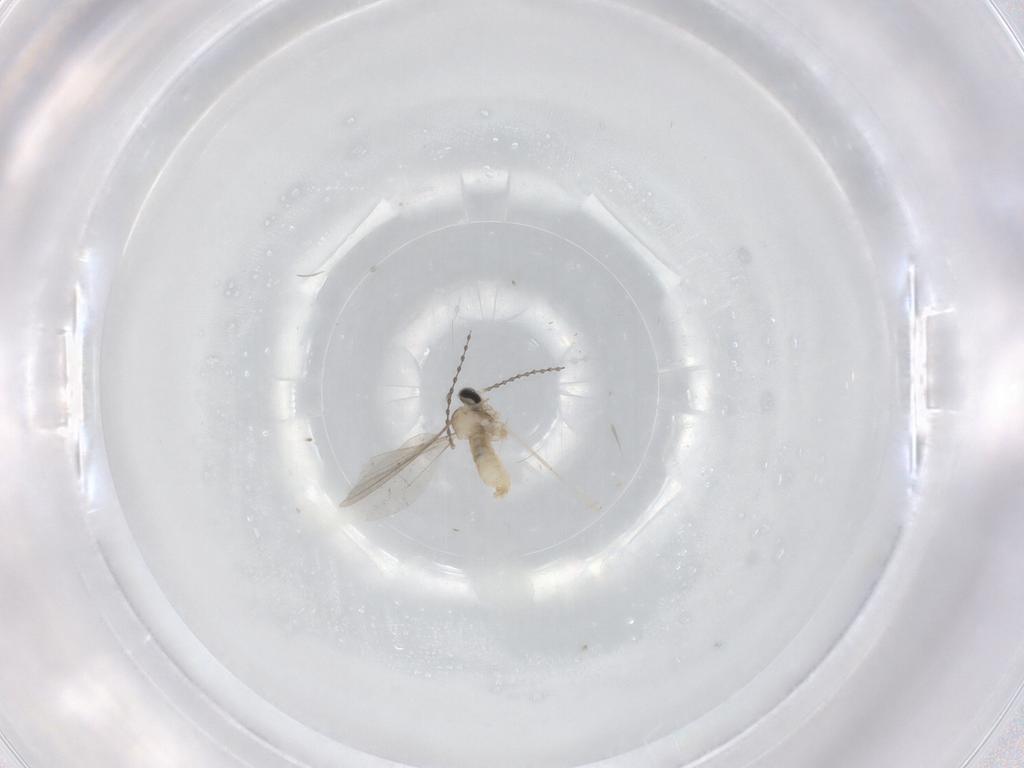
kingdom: Animalia
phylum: Arthropoda
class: Insecta
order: Diptera
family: Cecidomyiidae
